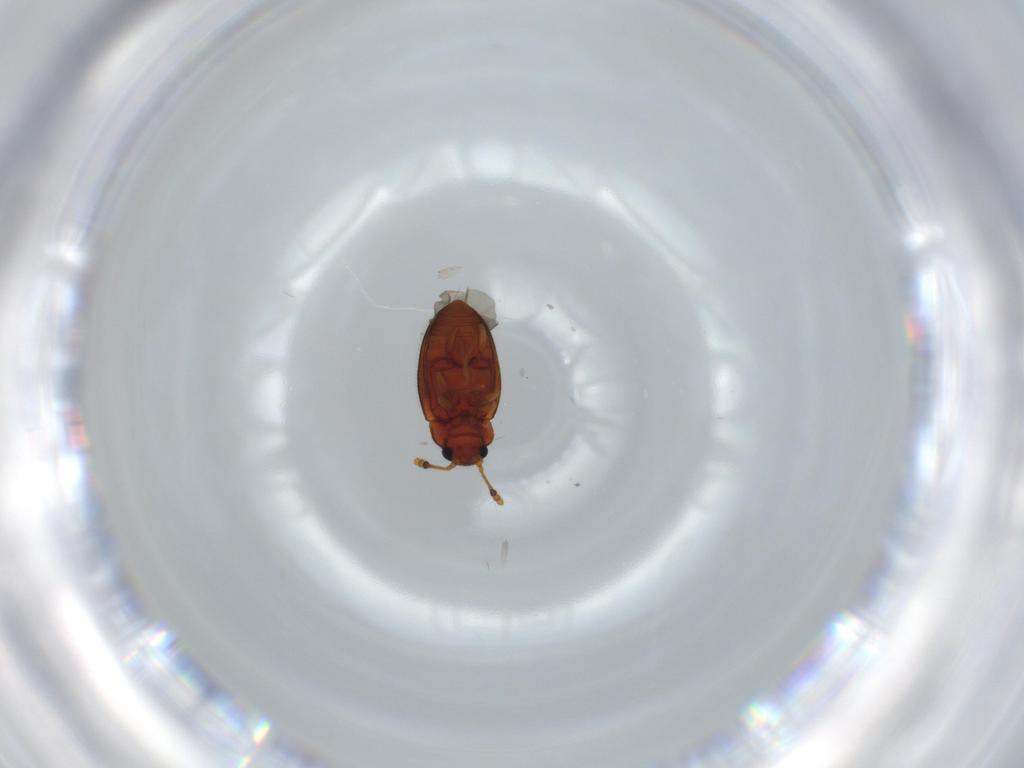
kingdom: Animalia
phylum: Arthropoda
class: Insecta
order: Coleoptera
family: Erotylidae
